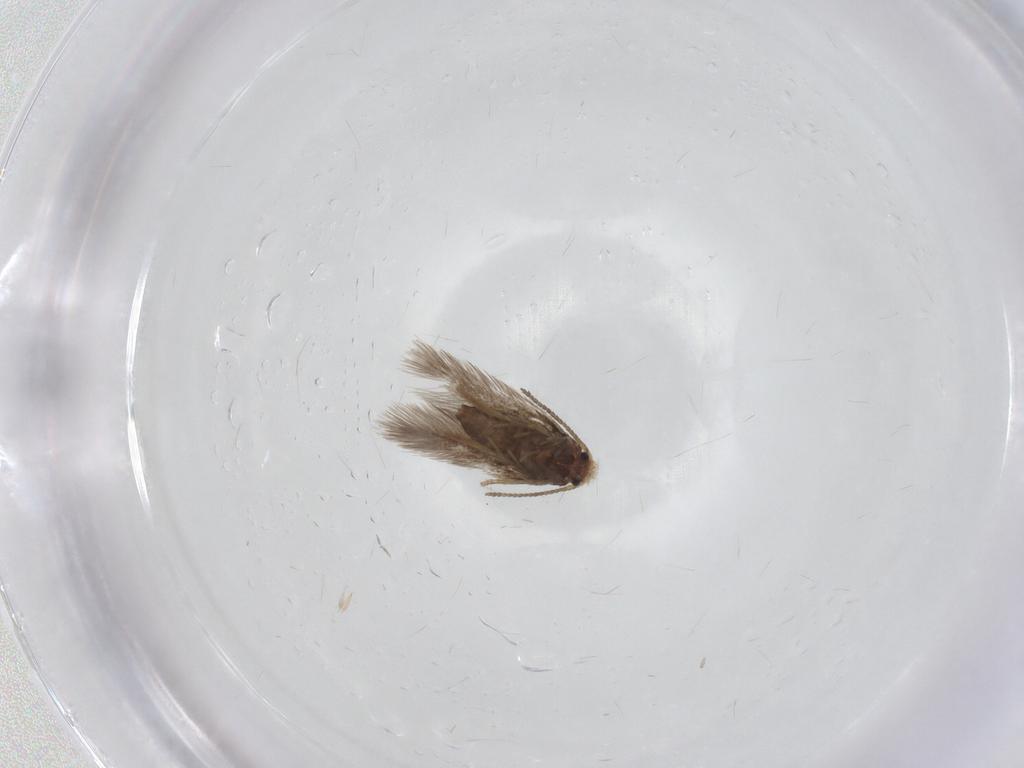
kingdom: Animalia
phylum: Arthropoda
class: Insecta
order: Lepidoptera
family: Nepticulidae
